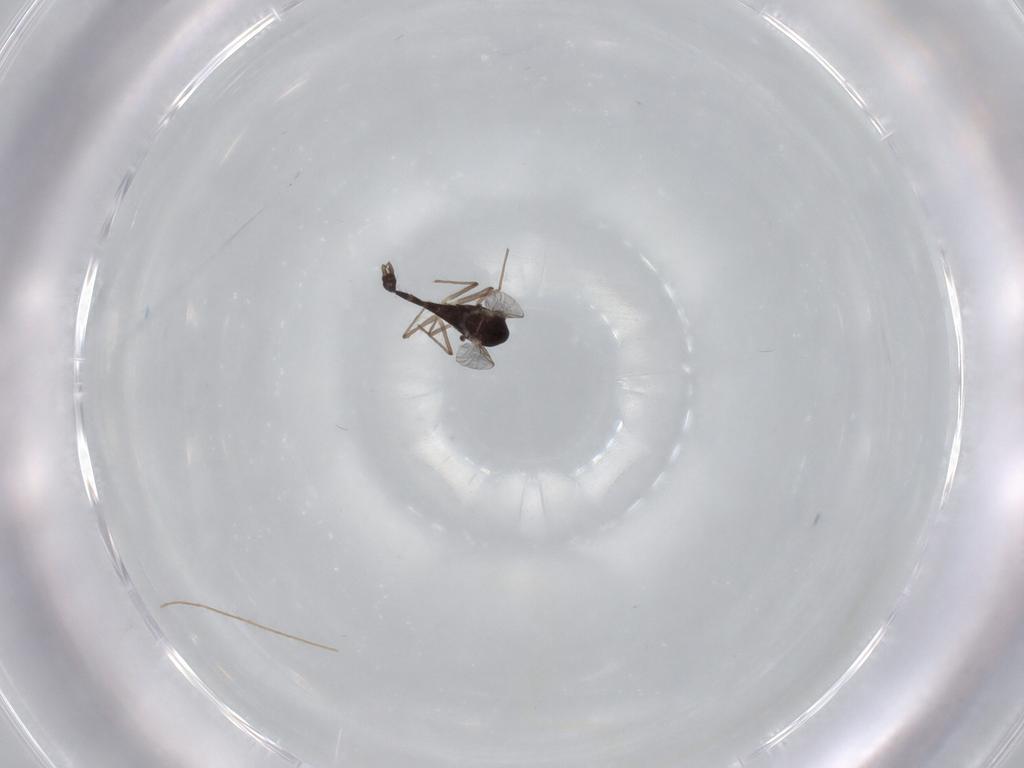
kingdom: Animalia
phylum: Arthropoda
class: Insecta
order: Diptera
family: Chironomidae
